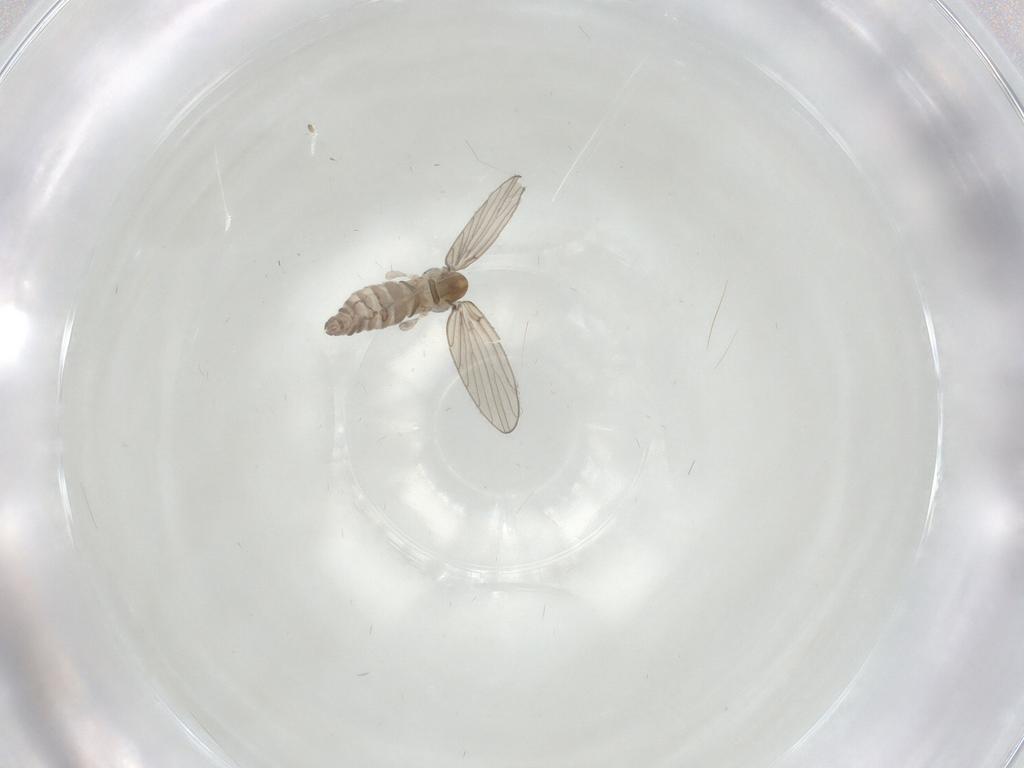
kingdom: Animalia
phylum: Arthropoda
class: Insecta
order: Diptera
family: Psychodidae
